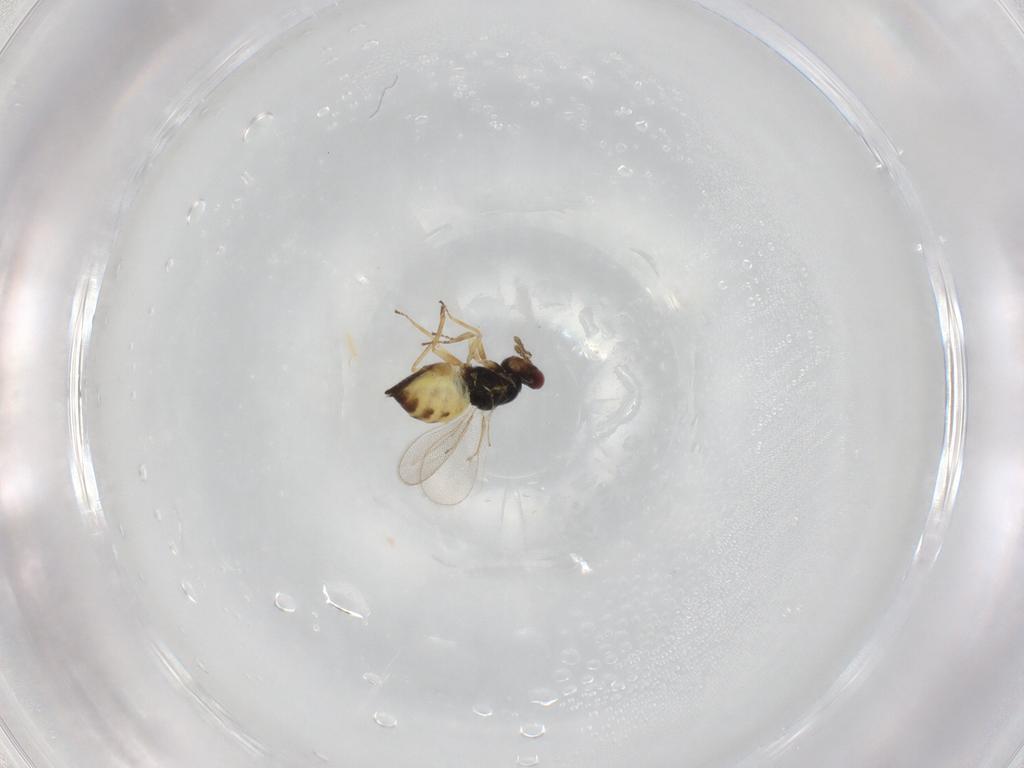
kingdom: Animalia
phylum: Arthropoda
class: Insecta
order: Hymenoptera
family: Eulophidae
